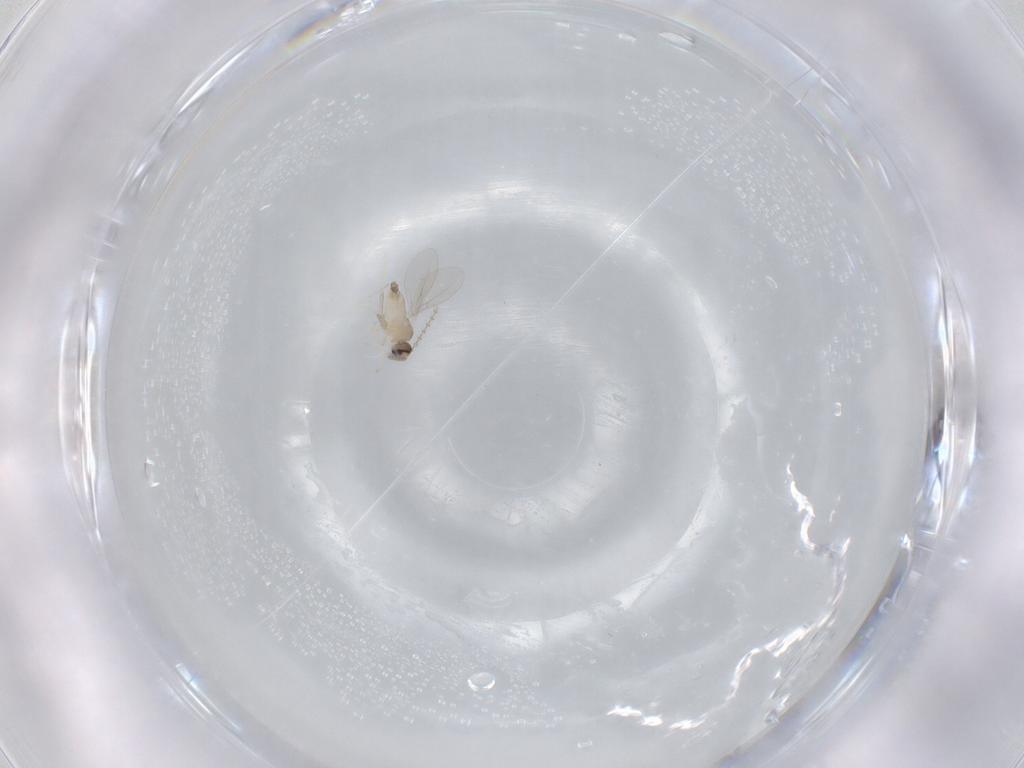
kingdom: Animalia
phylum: Arthropoda
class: Insecta
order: Diptera
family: Cecidomyiidae
